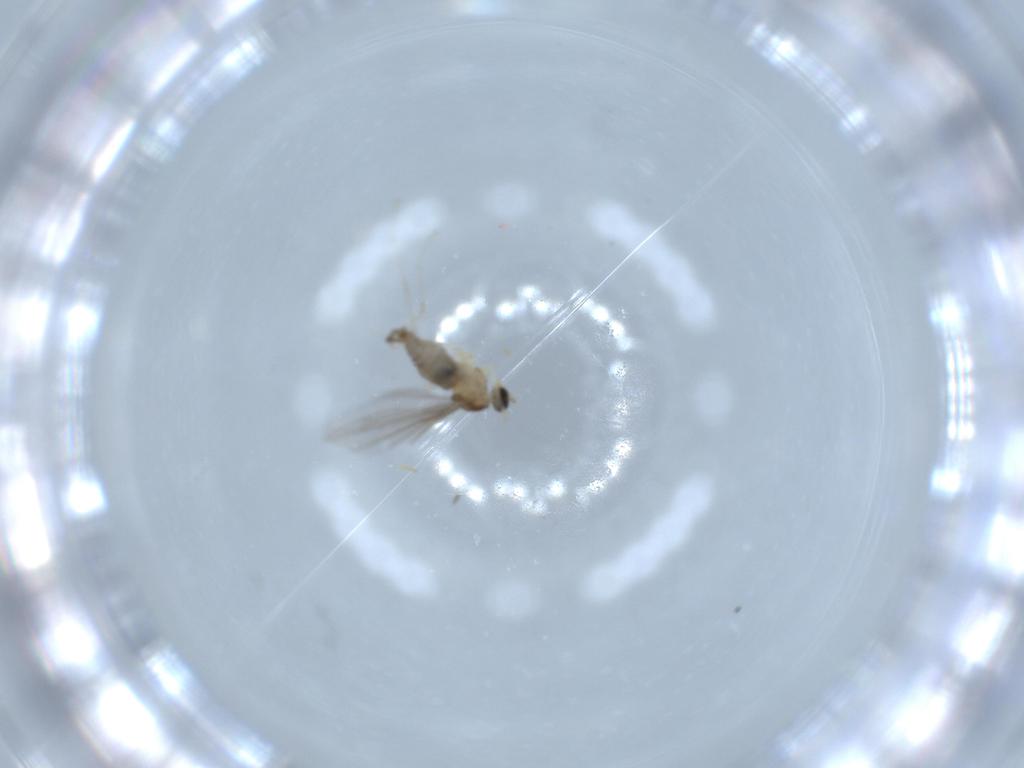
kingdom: Animalia
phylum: Arthropoda
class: Insecta
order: Diptera
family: Cecidomyiidae
